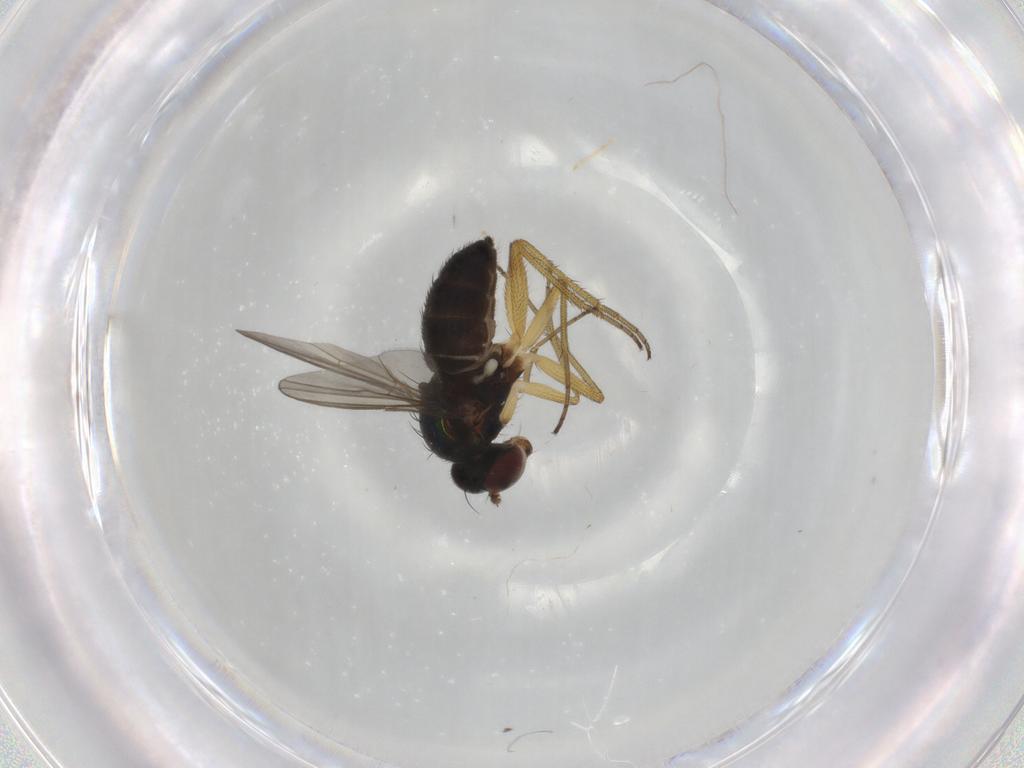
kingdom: Animalia
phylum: Arthropoda
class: Insecta
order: Diptera
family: Dolichopodidae
